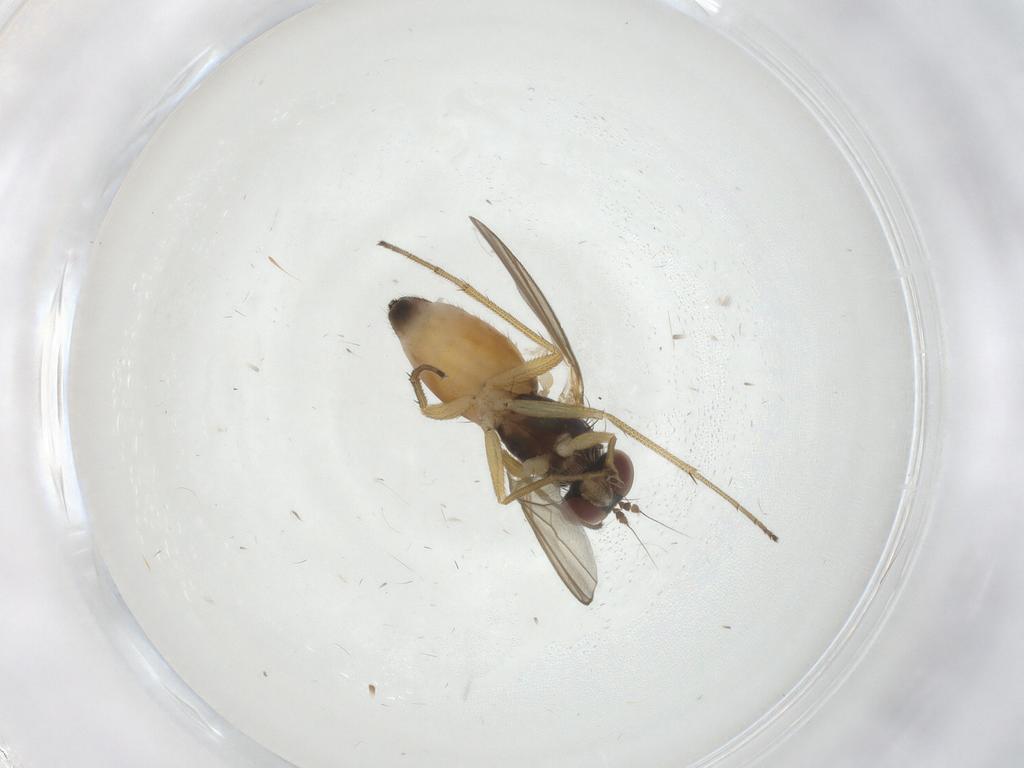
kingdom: Animalia
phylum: Arthropoda
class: Insecta
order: Diptera
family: Dolichopodidae
